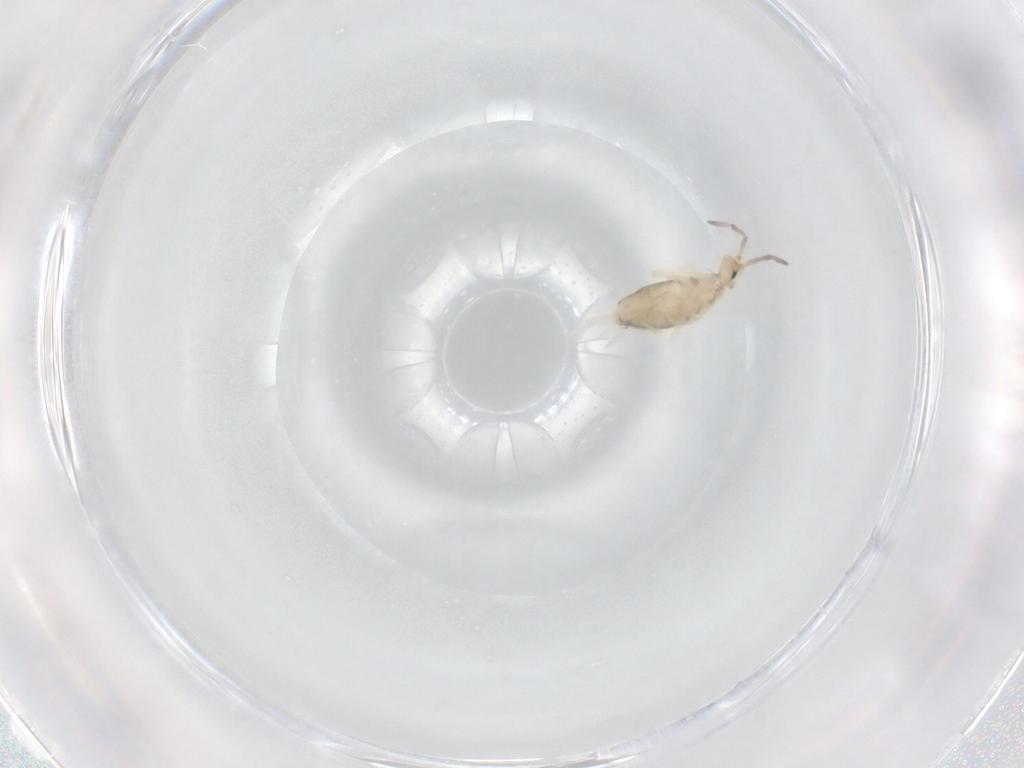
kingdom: Animalia
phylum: Arthropoda
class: Collembola
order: Entomobryomorpha
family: Entomobryidae
